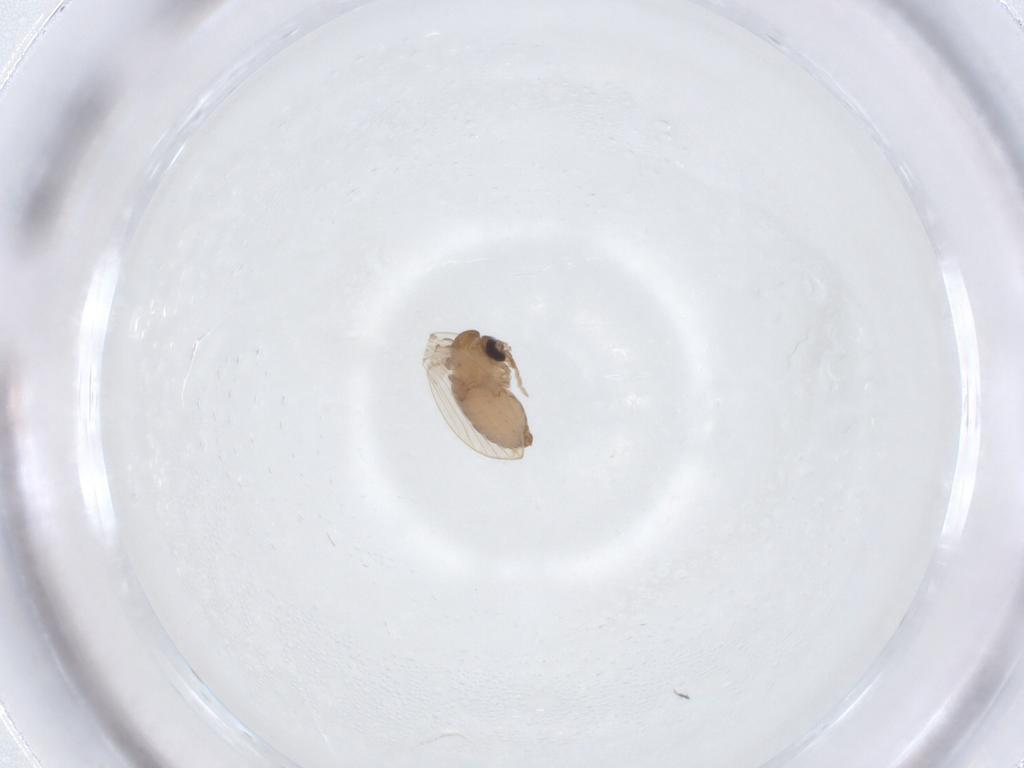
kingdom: Animalia
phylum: Arthropoda
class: Insecta
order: Diptera
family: Psychodidae
